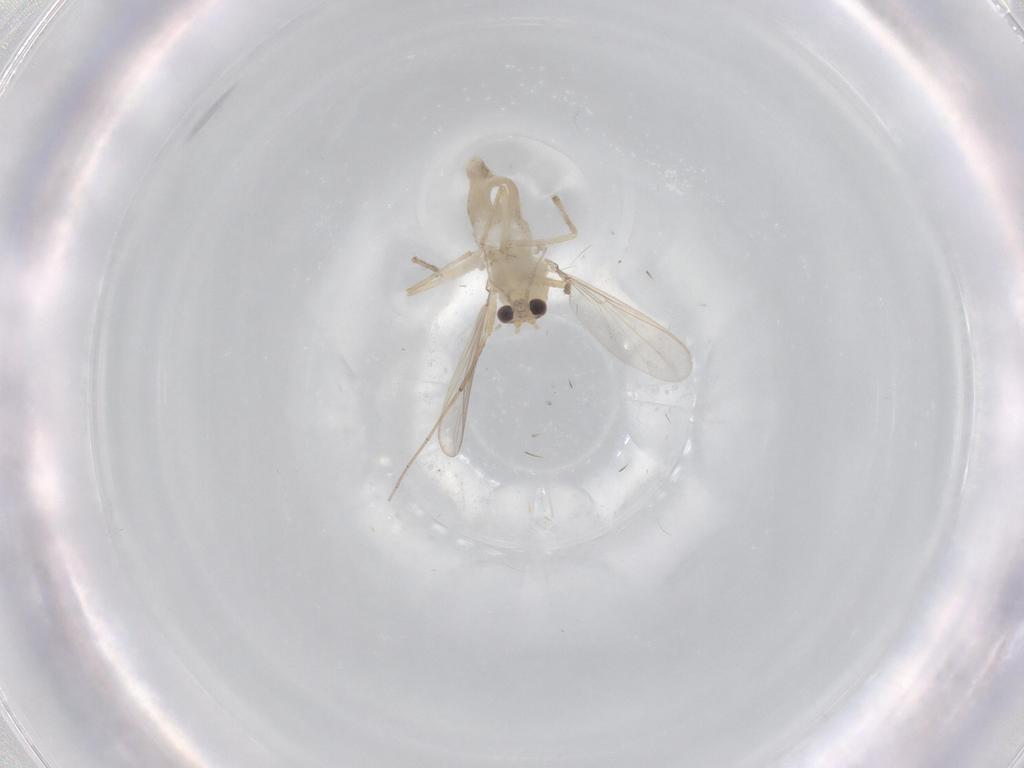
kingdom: Animalia
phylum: Arthropoda
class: Insecta
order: Diptera
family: Chironomidae
